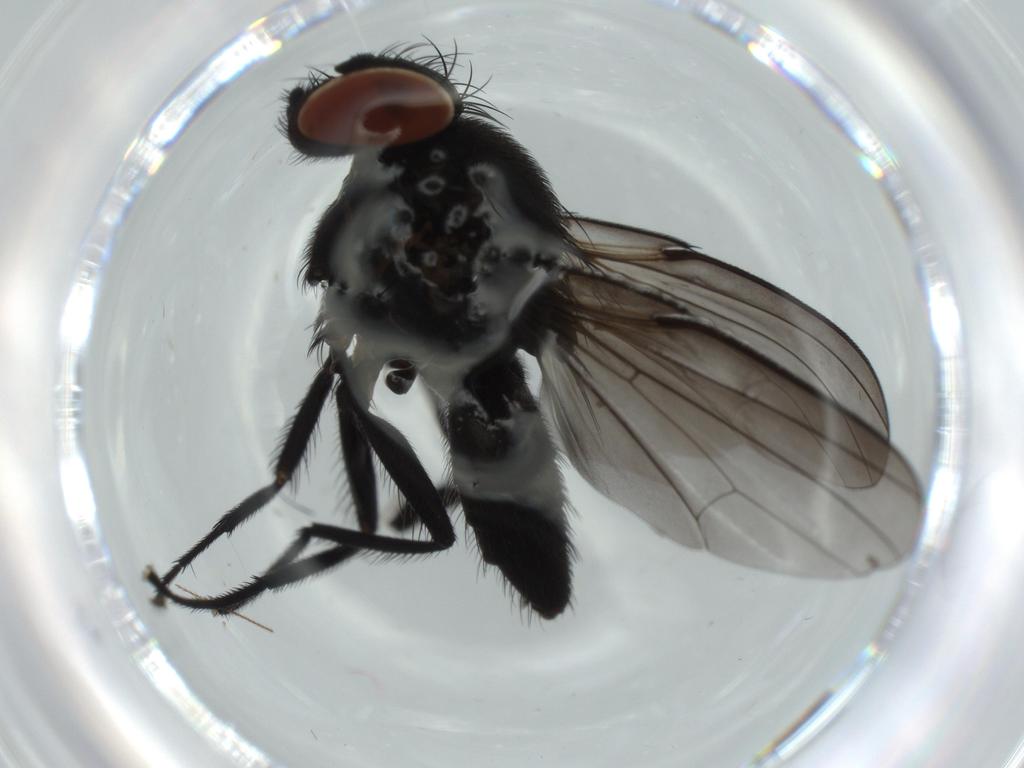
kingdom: Animalia
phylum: Arthropoda
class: Insecta
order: Diptera
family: Milichiidae
